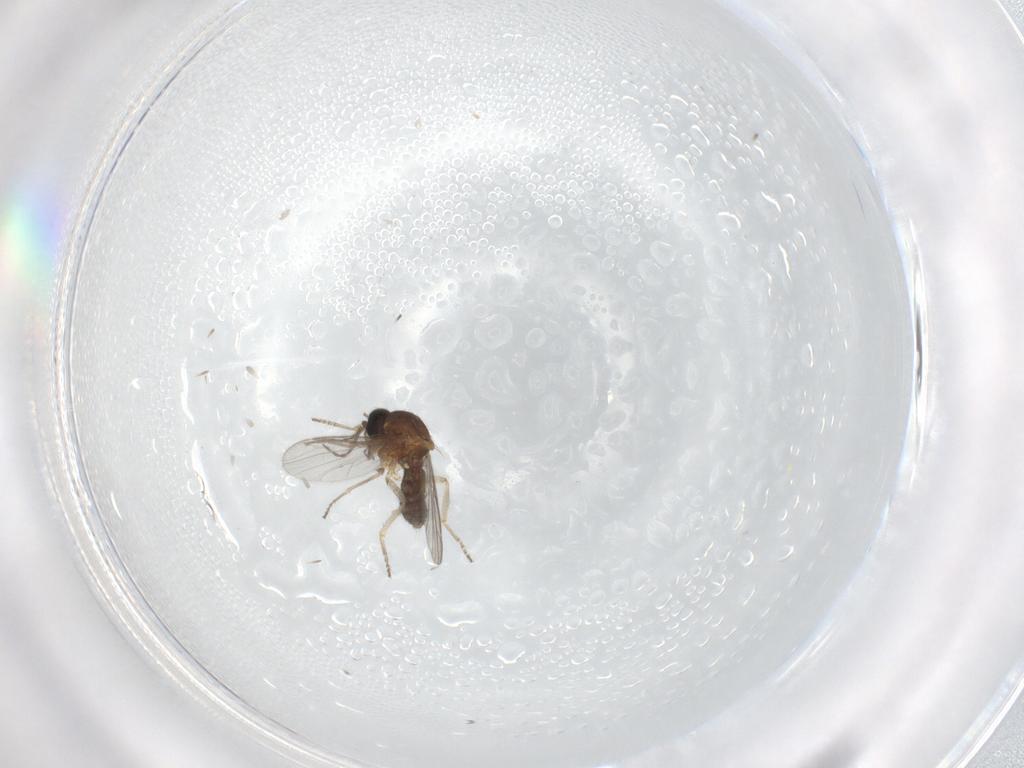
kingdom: Animalia
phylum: Arthropoda
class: Insecta
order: Diptera
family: Ceratopogonidae
